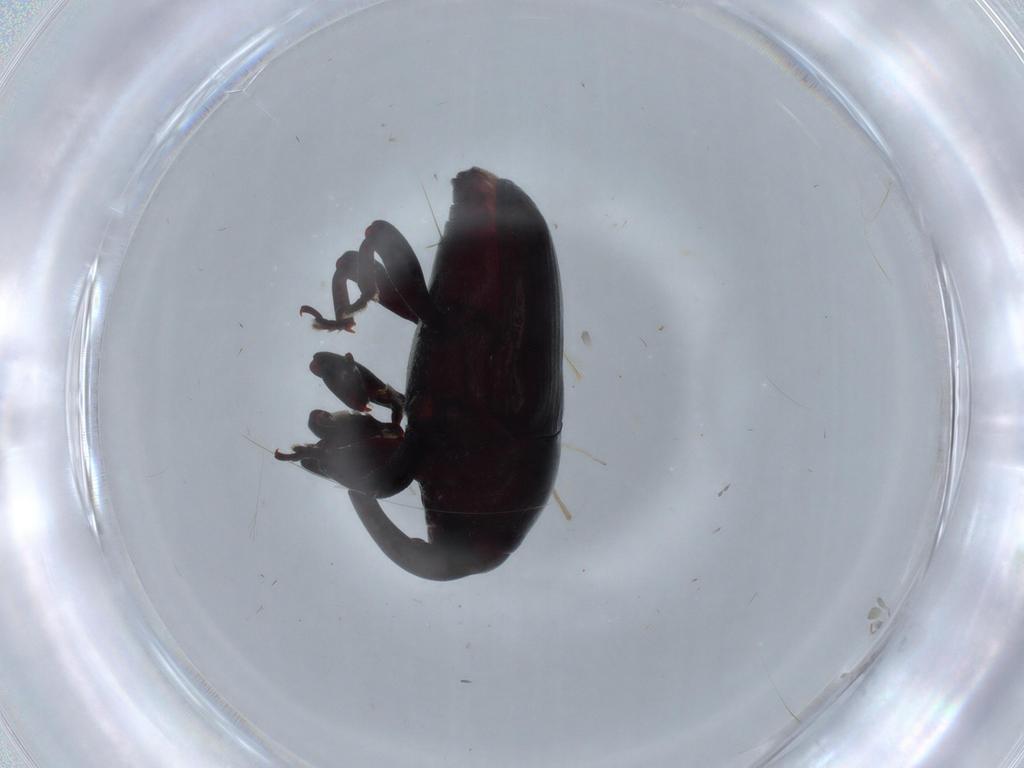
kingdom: Animalia
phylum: Arthropoda
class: Insecta
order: Coleoptera
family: Curculionidae
